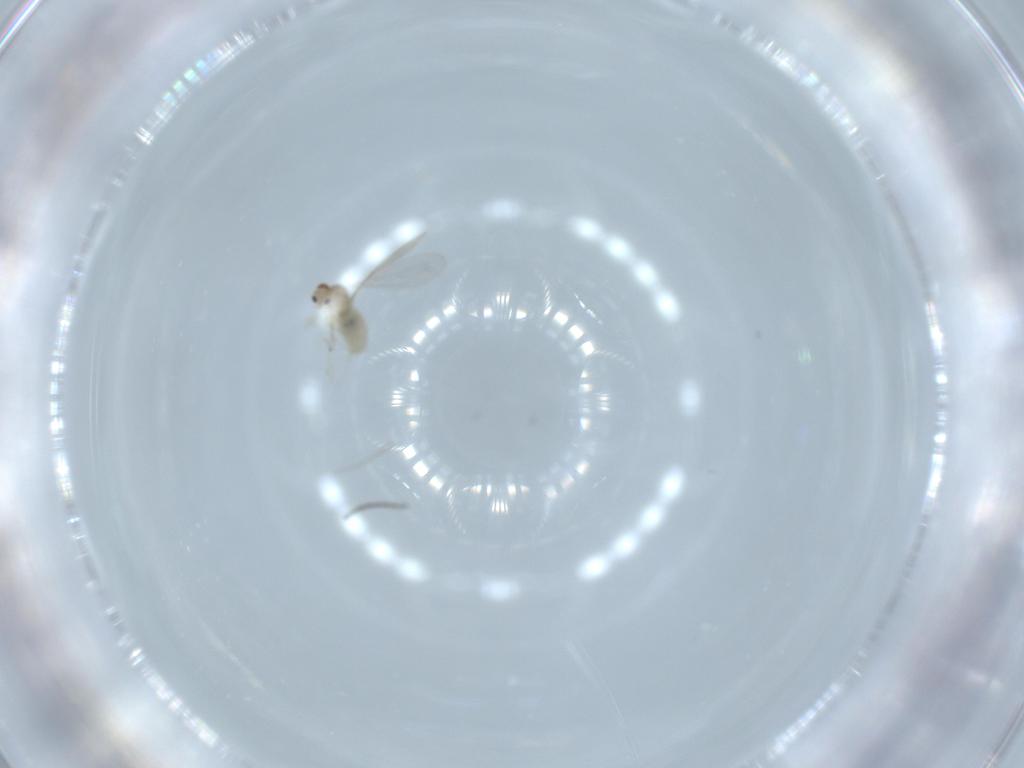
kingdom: Animalia
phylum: Arthropoda
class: Insecta
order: Diptera
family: Cecidomyiidae
